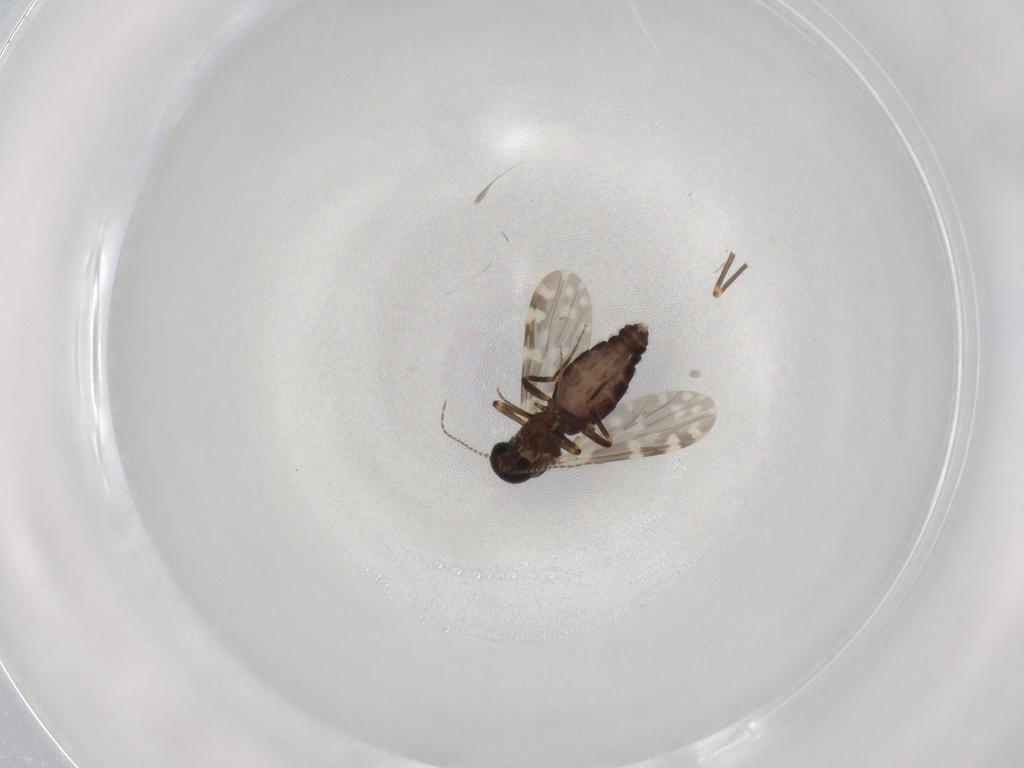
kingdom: Animalia
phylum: Arthropoda
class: Insecta
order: Diptera
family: Ceratopogonidae
